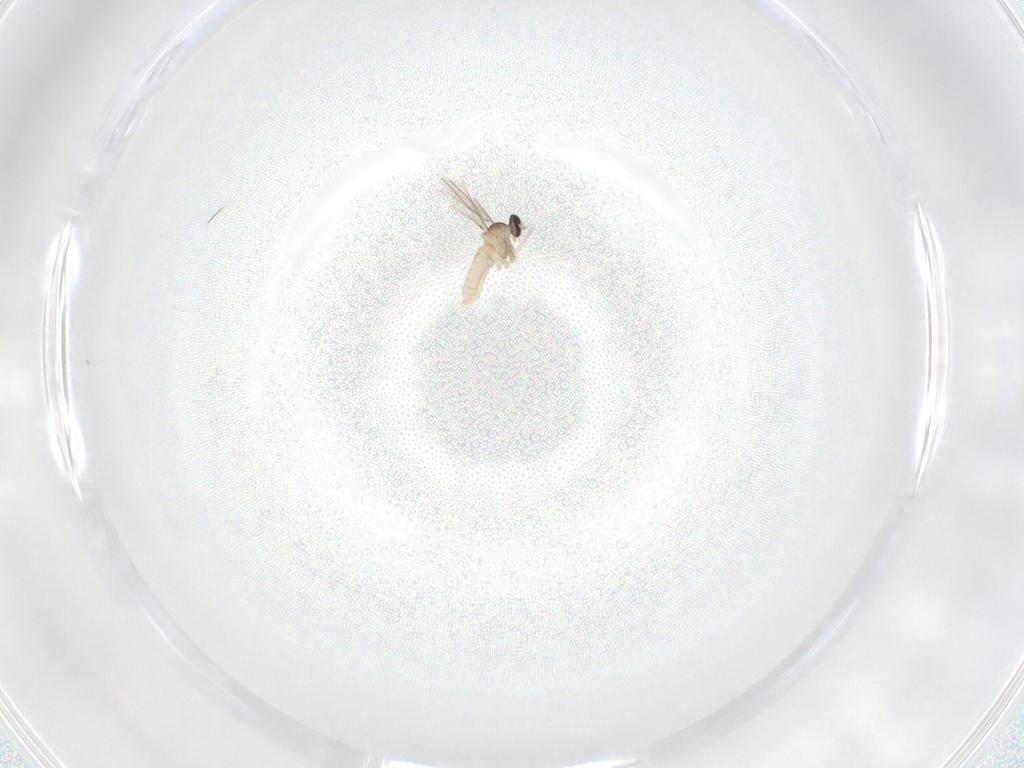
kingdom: Animalia
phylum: Arthropoda
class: Insecta
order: Diptera
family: Cecidomyiidae
